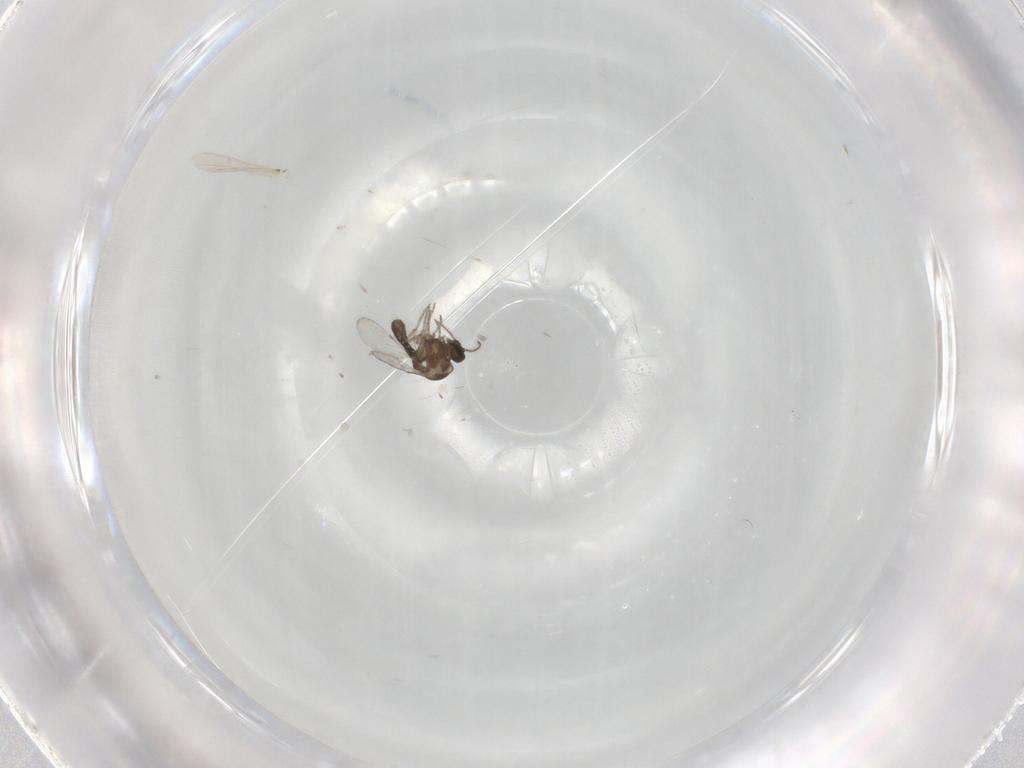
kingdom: Animalia
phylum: Arthropoda
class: Insecta
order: Diptera
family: Ceratopogonidae
